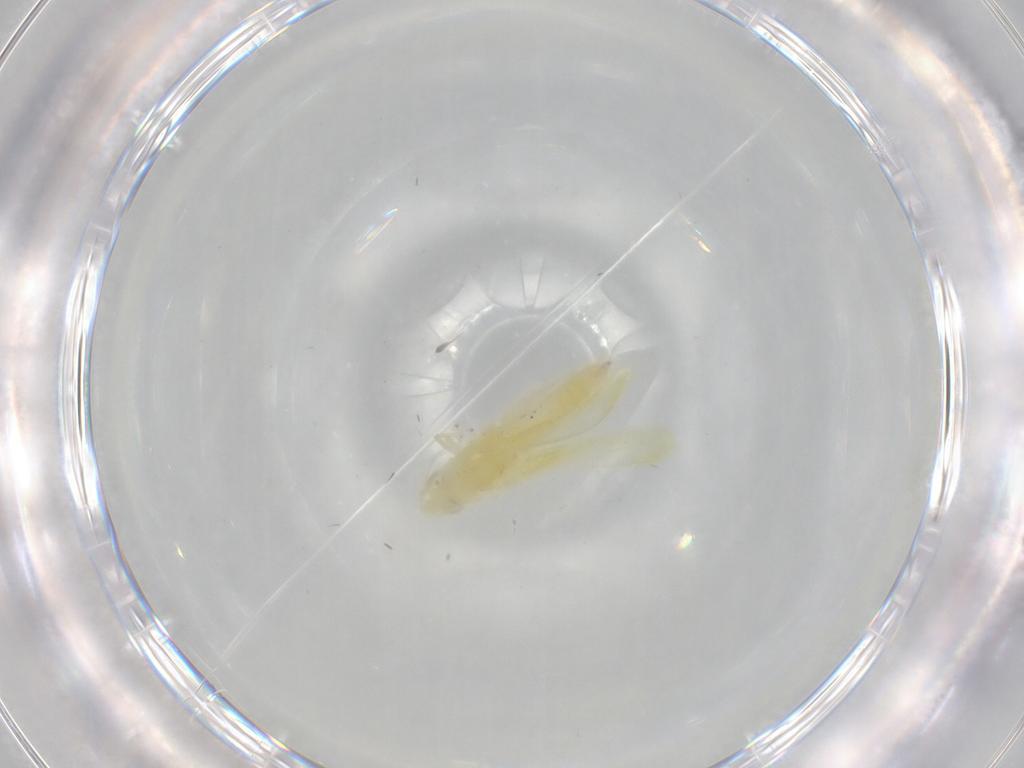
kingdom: Animalia
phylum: Arthropoda
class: Insecta
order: Hemiptera
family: Cicadellidae
